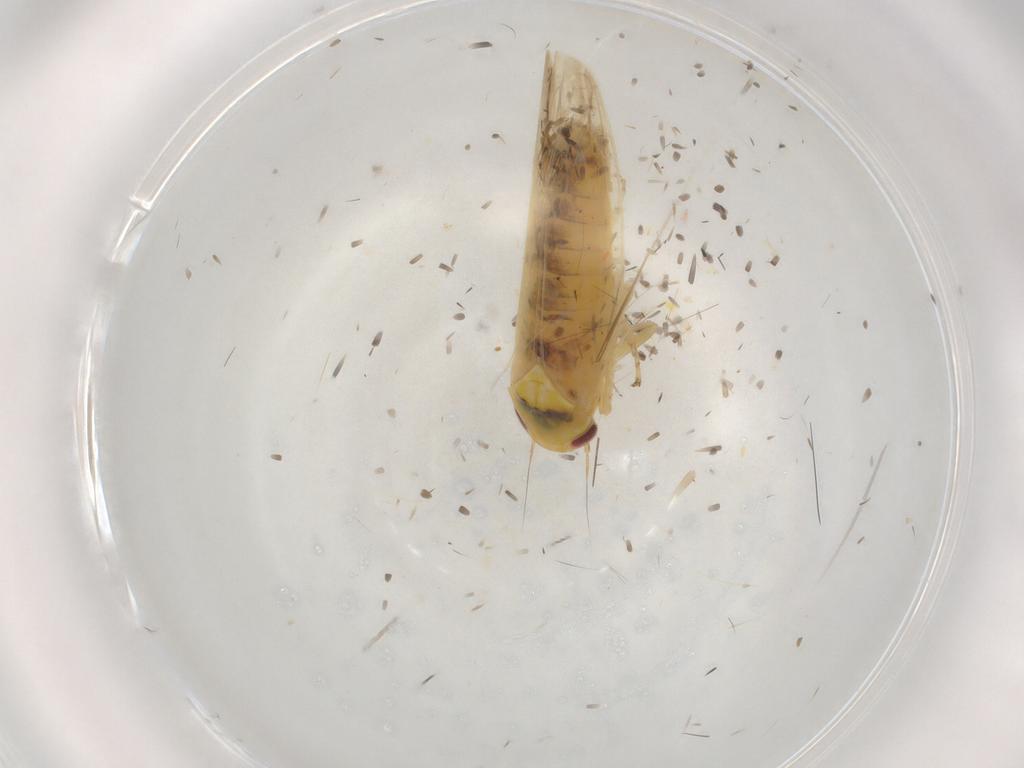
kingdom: Animalia
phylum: Arthropoda
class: Insecta
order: Hemiptera
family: Cicadellidae
